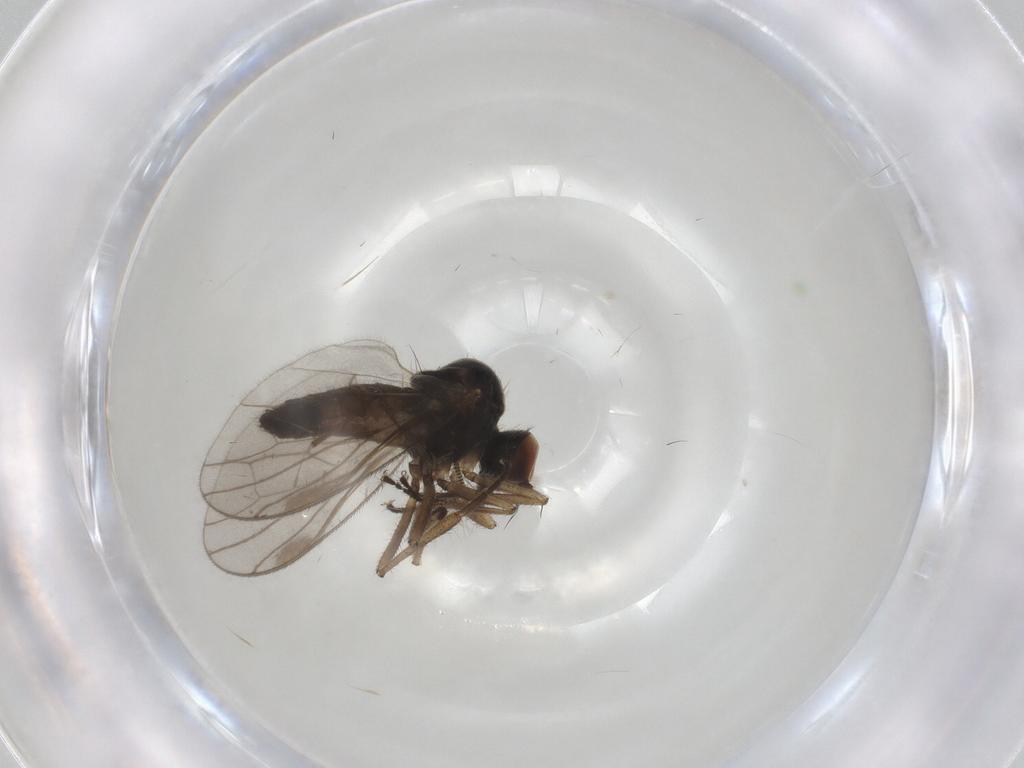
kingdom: Animalia
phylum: Arthropoda
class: Insecta
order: Diptera
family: Hybotidae
